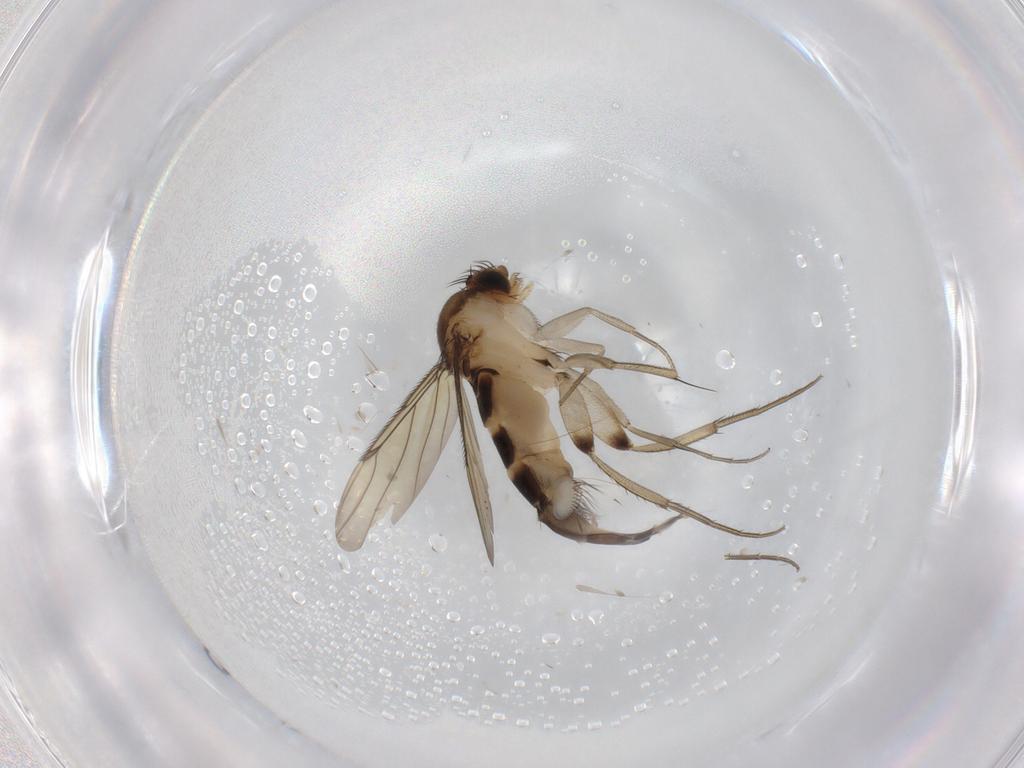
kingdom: Animalia
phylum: Arthropoda
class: Insecta
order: Diptera
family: Phoridae
